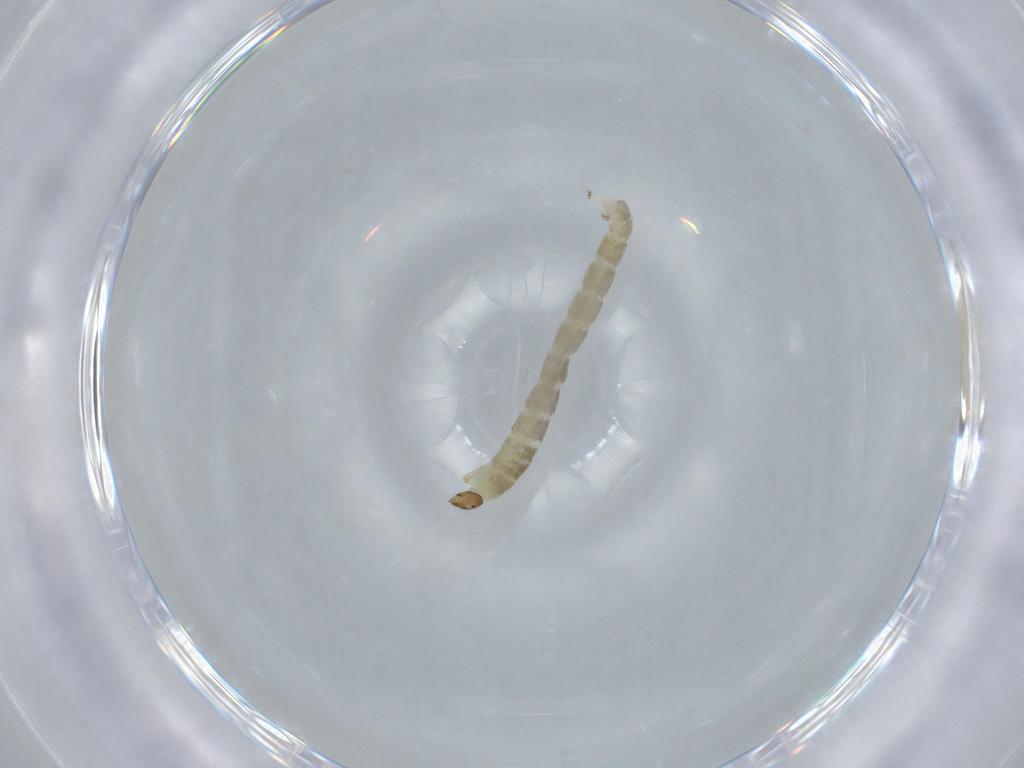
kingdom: Animalia
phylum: Arthropoda
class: Insecta
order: Diptera
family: Chironomidae
